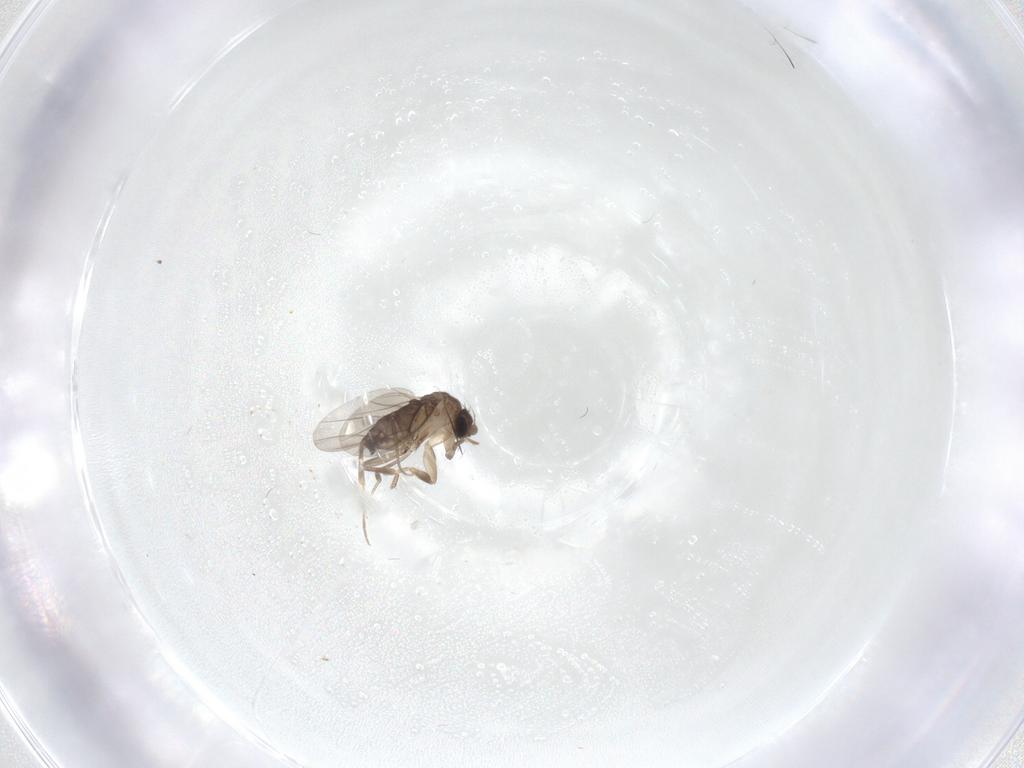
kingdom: Animalia
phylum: Arthropoda
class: Insecta
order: Diptera
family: Phoridae
